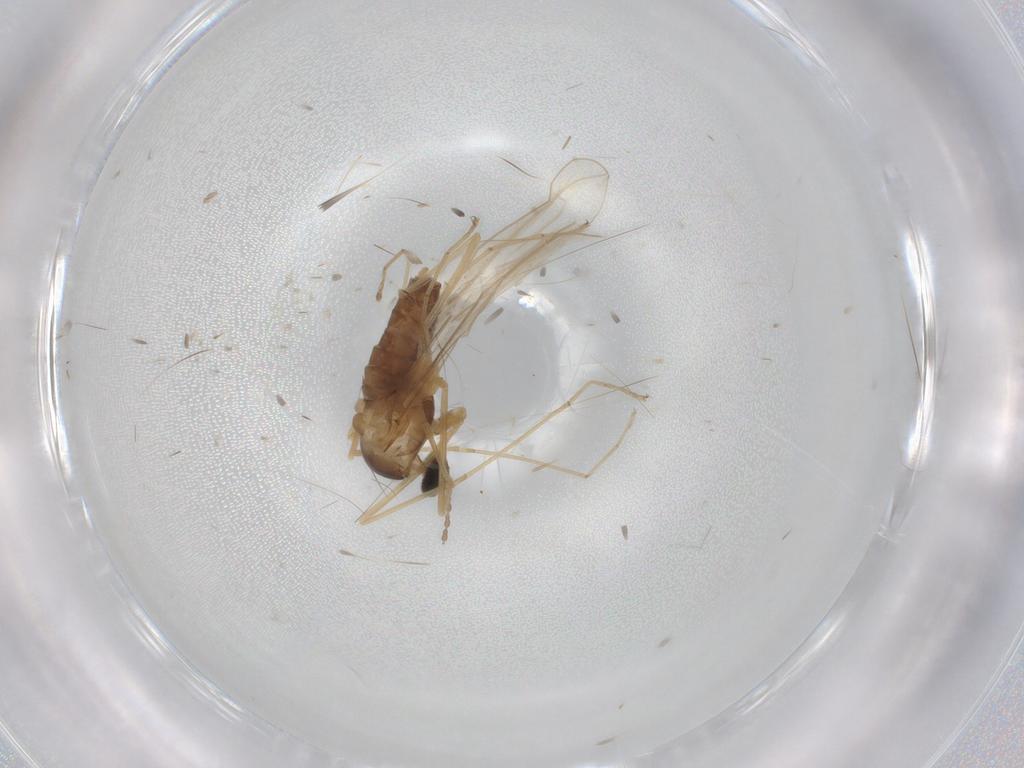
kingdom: Animalia
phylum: Arthropoda
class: Insecta
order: Diptera
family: Cecidomyiidae
